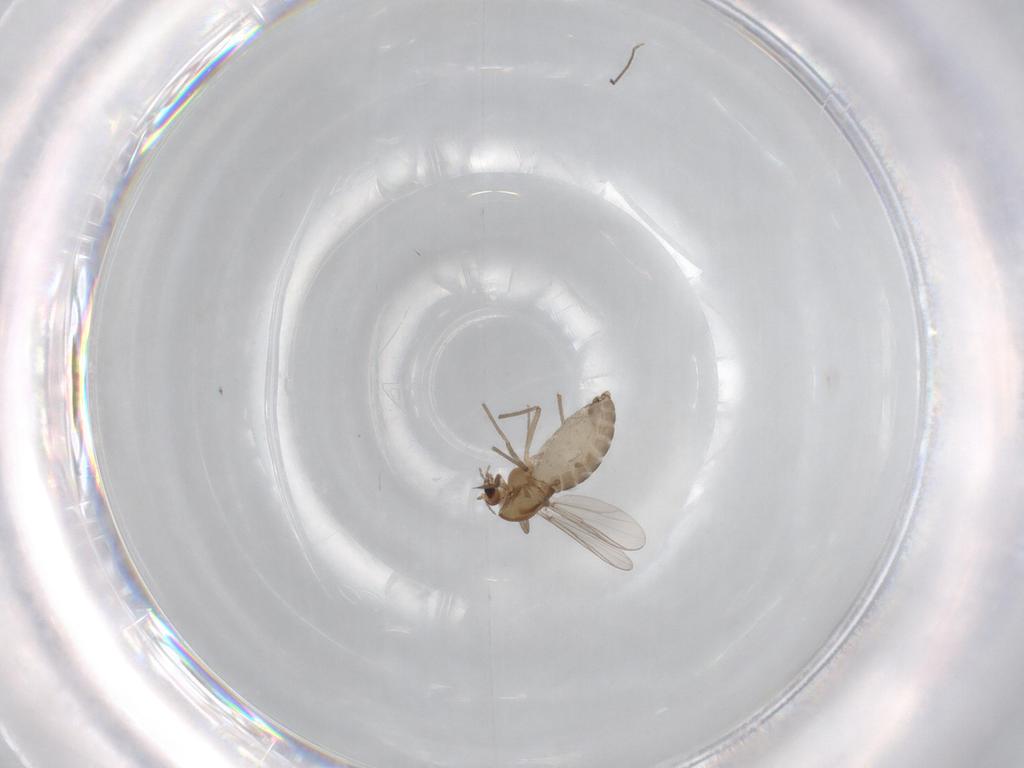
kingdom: Animalia
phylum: Arthropoda
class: Insecta
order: Diptera
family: Chironomidae
